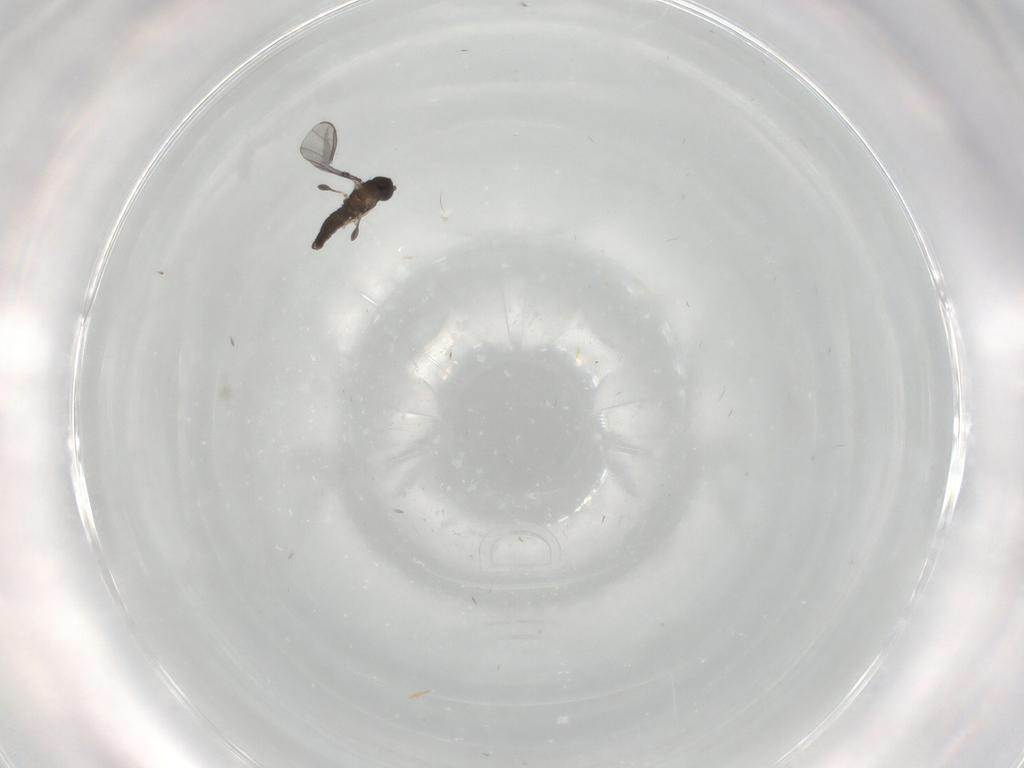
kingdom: Animalia
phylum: Arthropoda
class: Insecta
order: Diptera
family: Sciaridae
